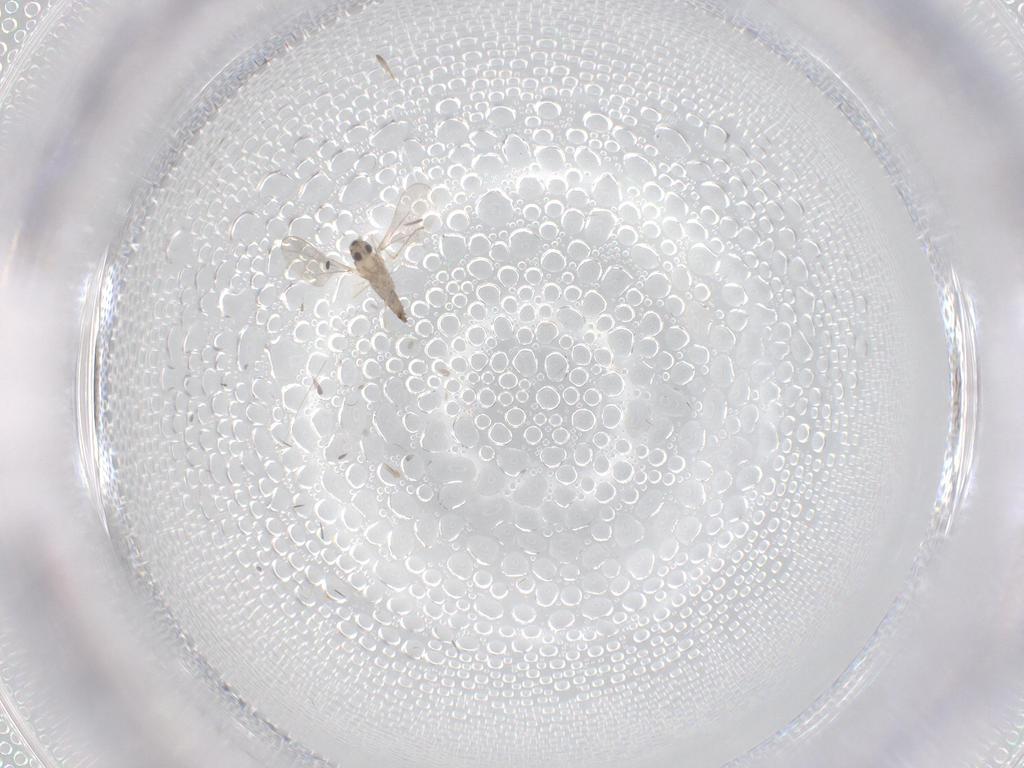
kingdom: Animalia
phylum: Arthropoda
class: Insecta
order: Diptera
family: Cecidomyiidae
